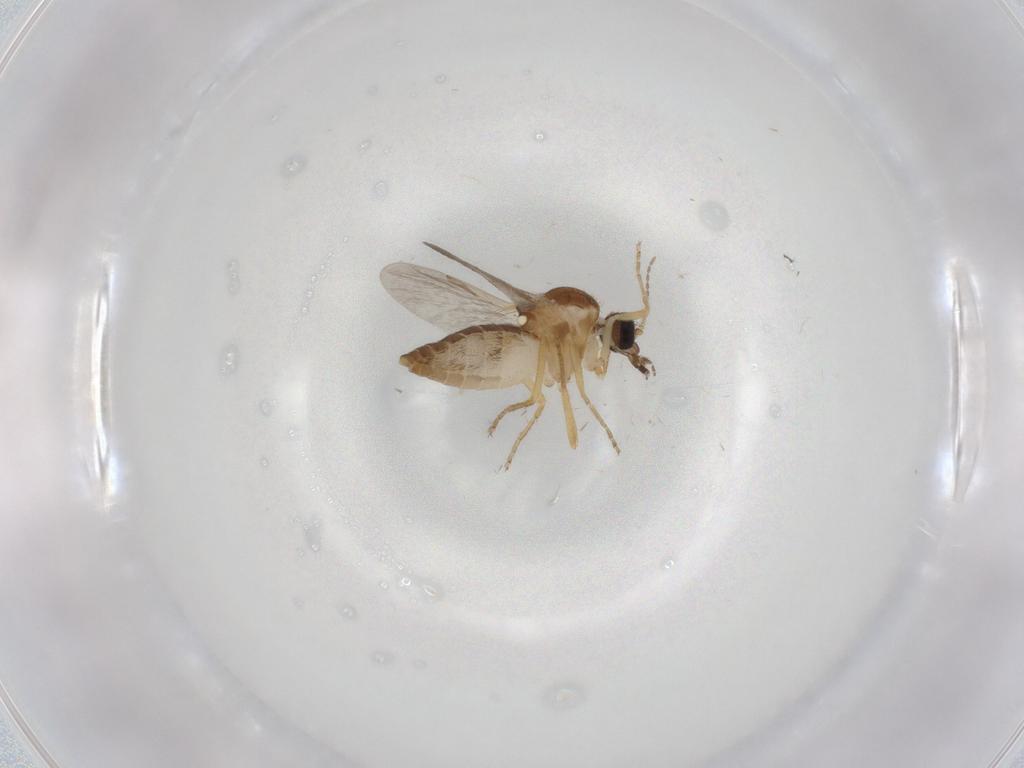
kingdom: Animalia
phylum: Arthropoda
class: Insecta
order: Diptera
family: Ceratopogonidae
